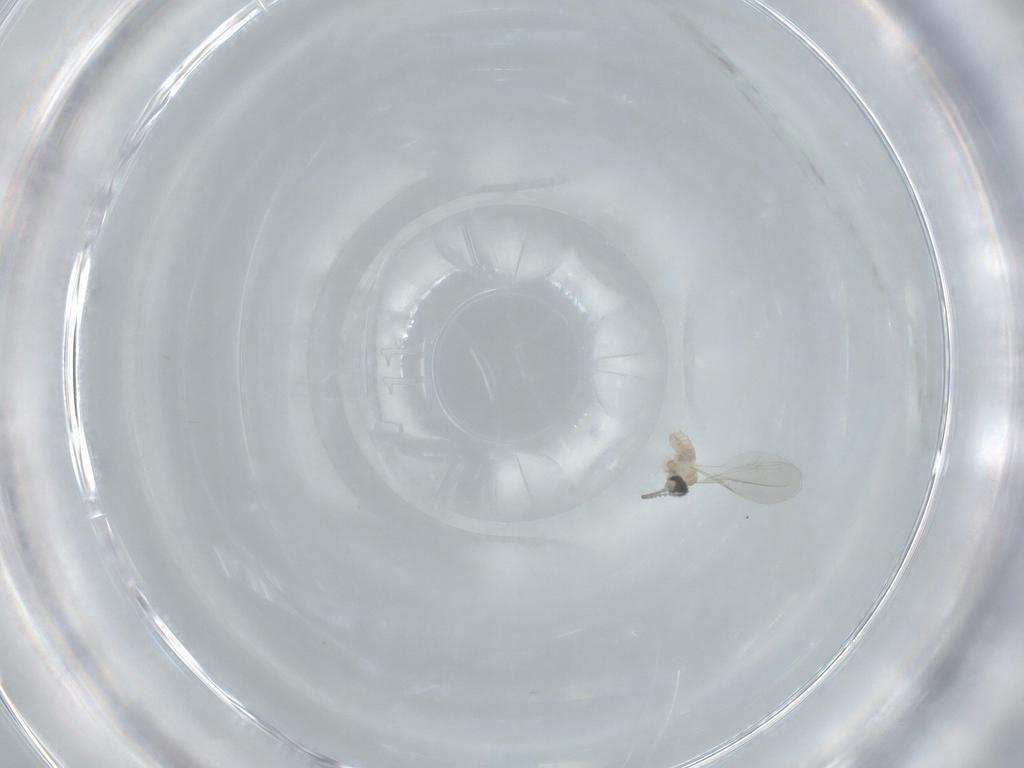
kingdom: Animalia
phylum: Arthropoda
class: Insecta
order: Diptera
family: Cecidomyiidae
